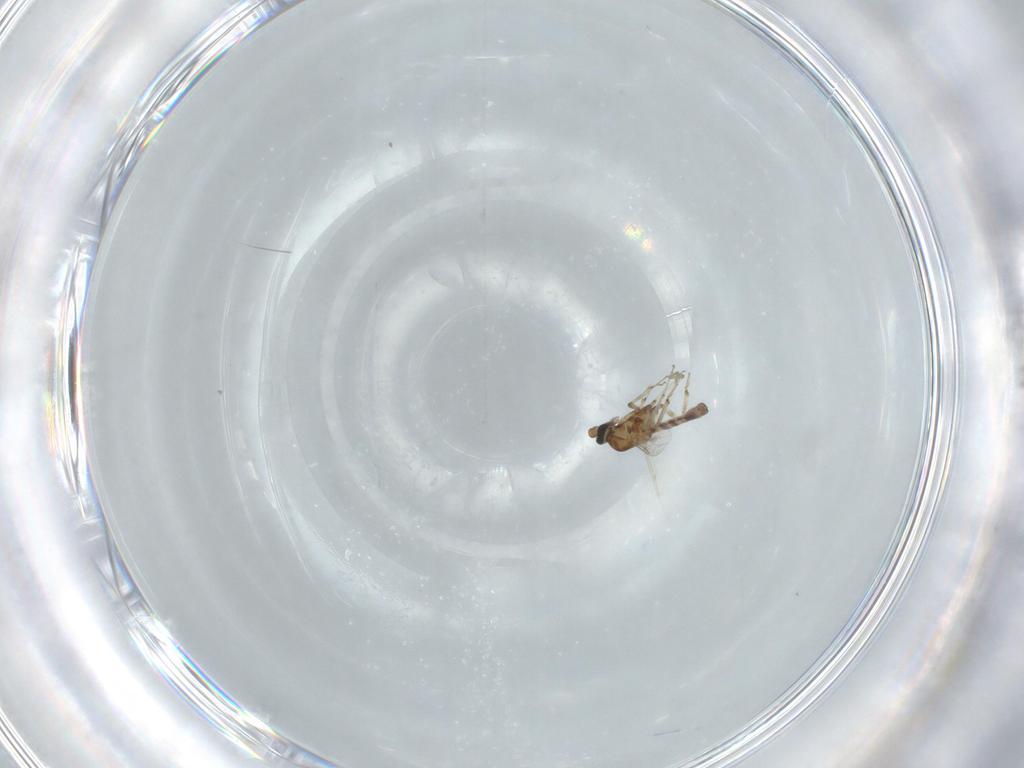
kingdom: Animalia
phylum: Arthropoda
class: Insecta
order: Diptera
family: Ceratopogonidae
